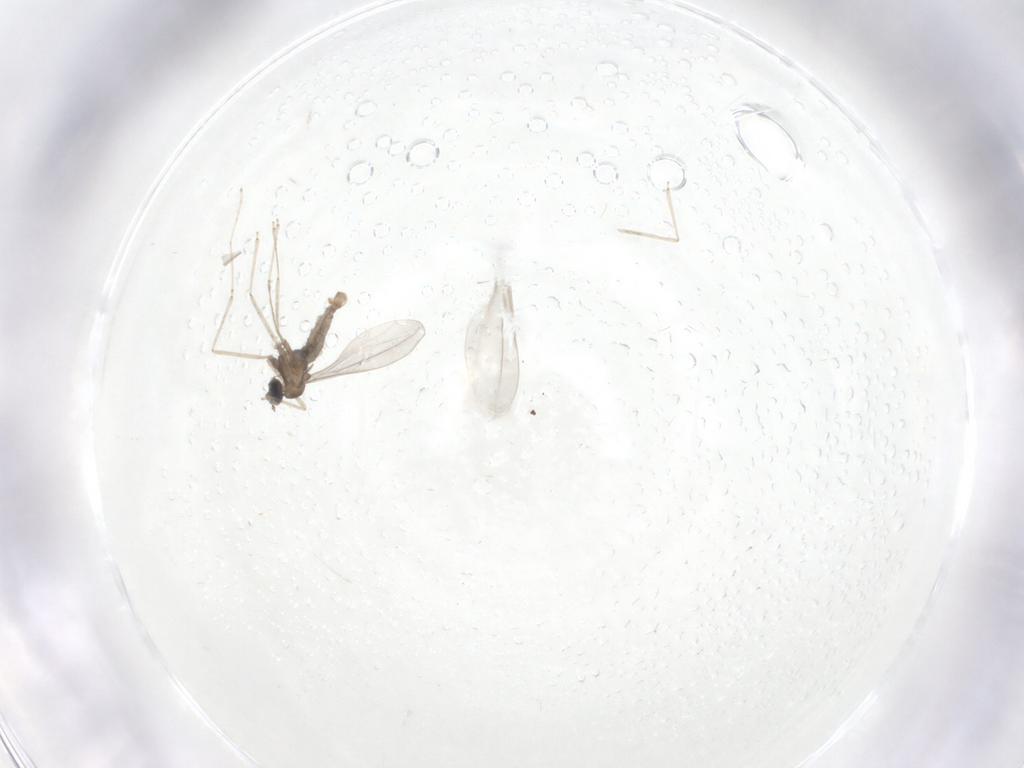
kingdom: Animalia
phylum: Arthropoda
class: Insecta
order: Diptera
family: Cecidomyiidae
